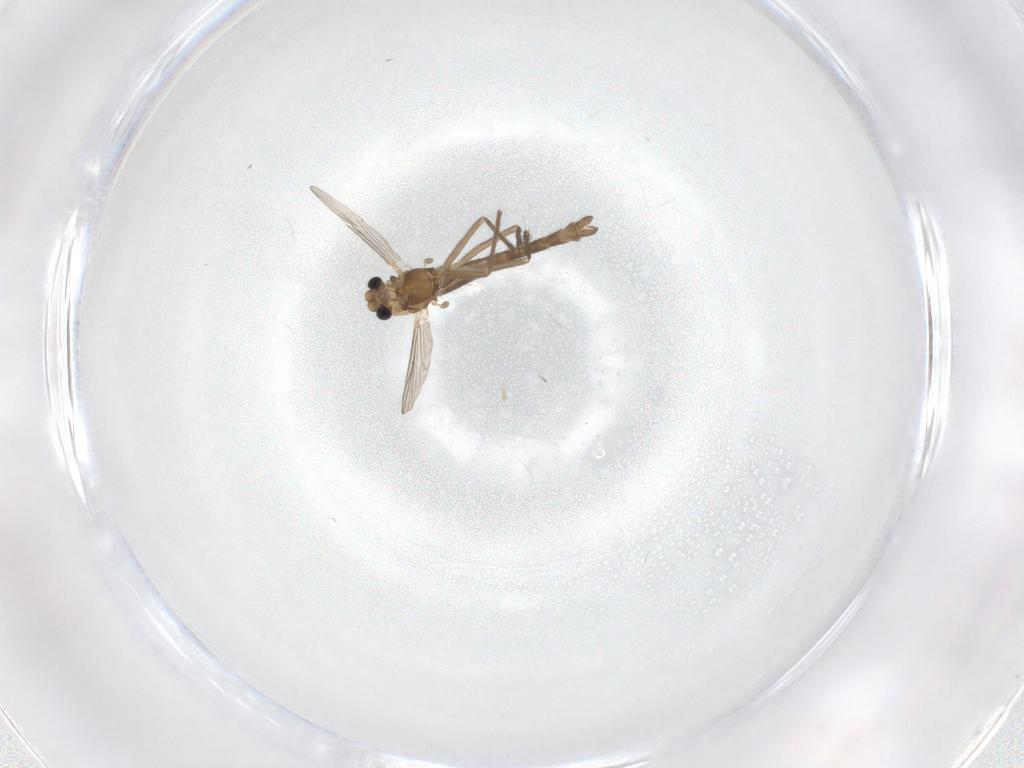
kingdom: Animalia
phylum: Arthropoda
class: Insecta
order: Diptera
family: Chironomidae
